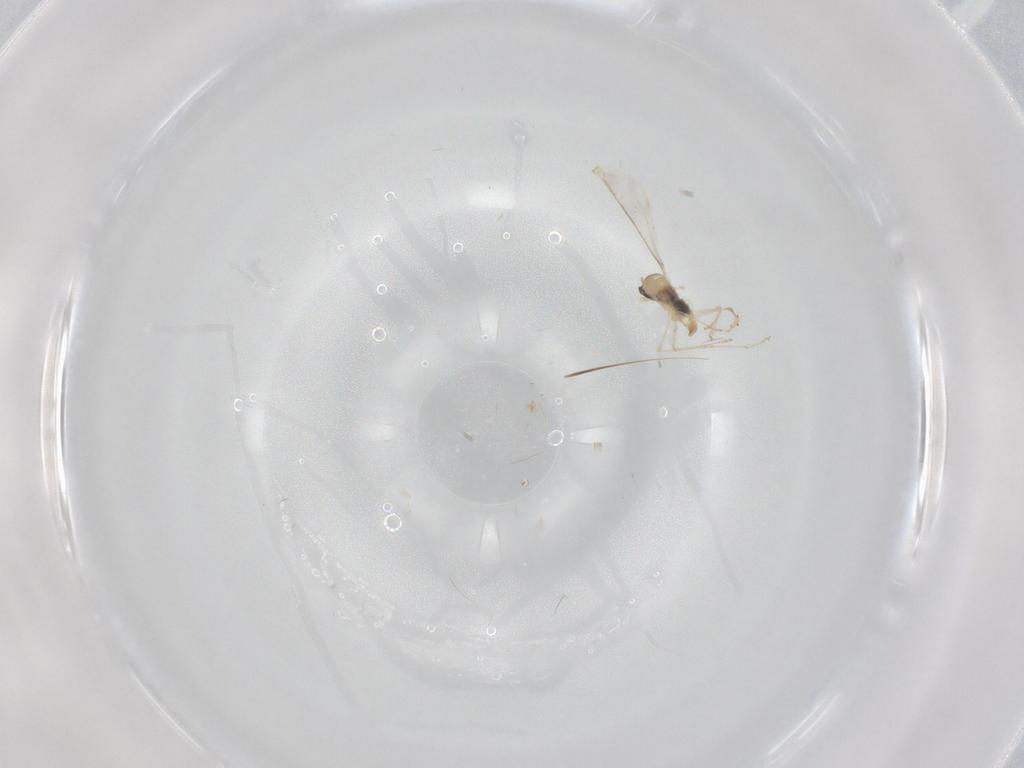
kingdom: Animalia
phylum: Arthropoda
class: Insecta
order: Diptera
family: Cecidomyiidae
